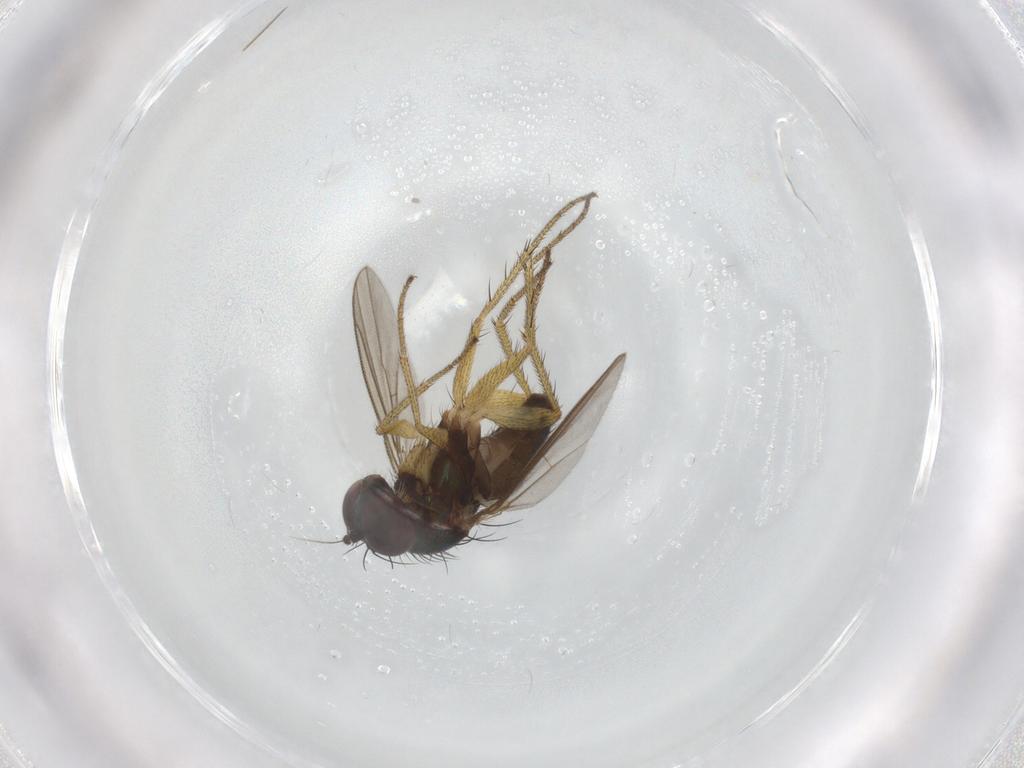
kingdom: Animalia
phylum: Arthropoda
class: Insecta
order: Diptera
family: Dolichopodidae
